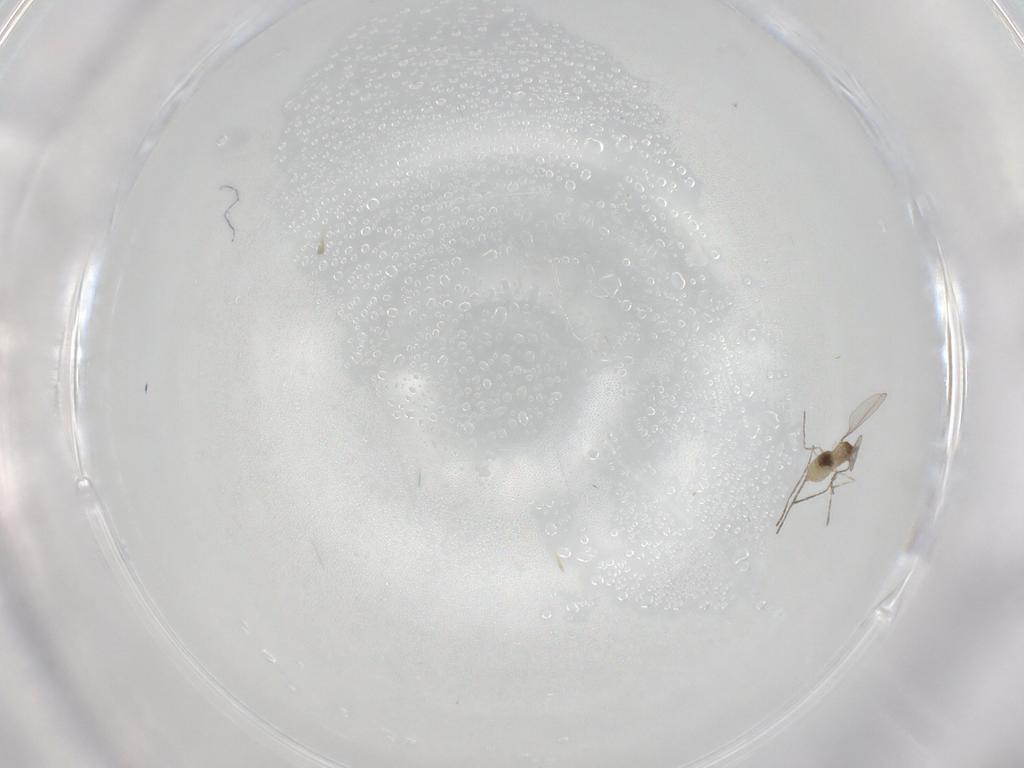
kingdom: Animalia
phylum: Arthropoda
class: Insecta
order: Diptera
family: Cecidomyiidae
